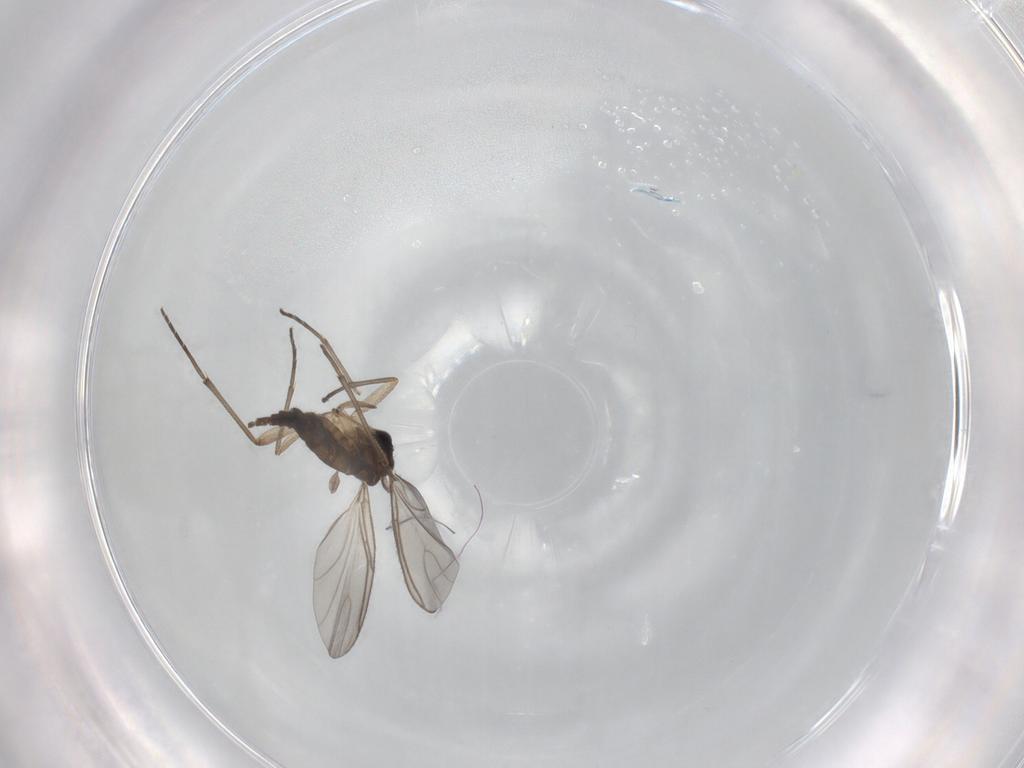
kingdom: Animalia
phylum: Arthropoda
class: Insecta
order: Diptera
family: Sciaridae
